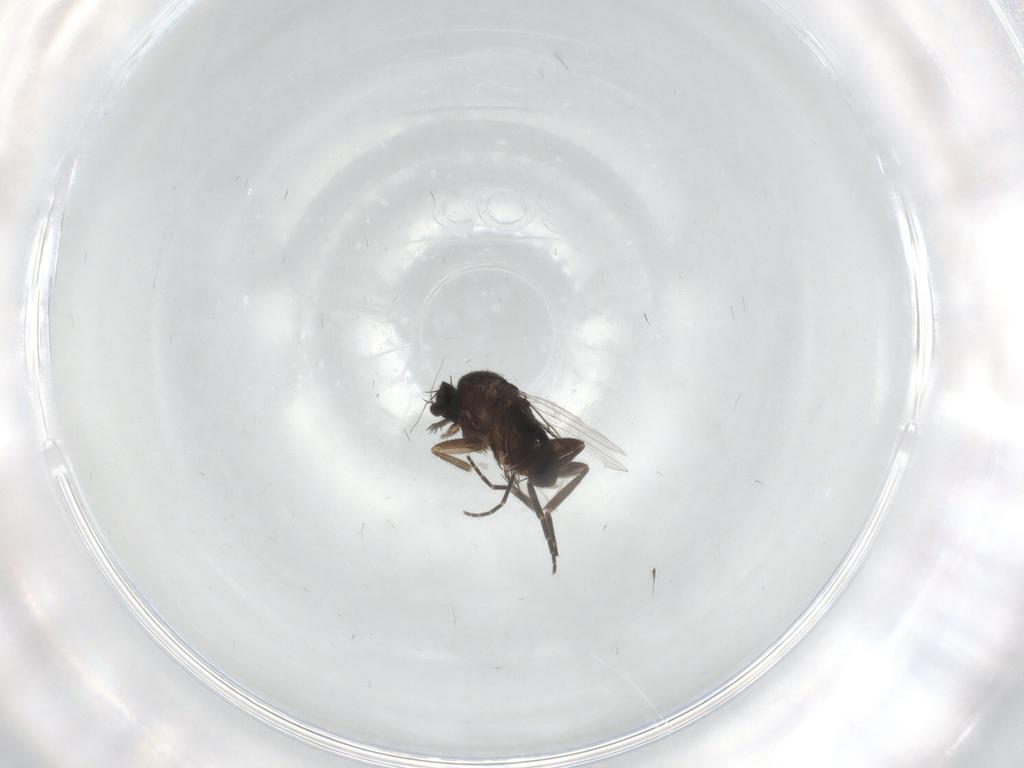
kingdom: Animalia
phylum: Arthropoda
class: Insecta
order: Diptera
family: Phoridae
